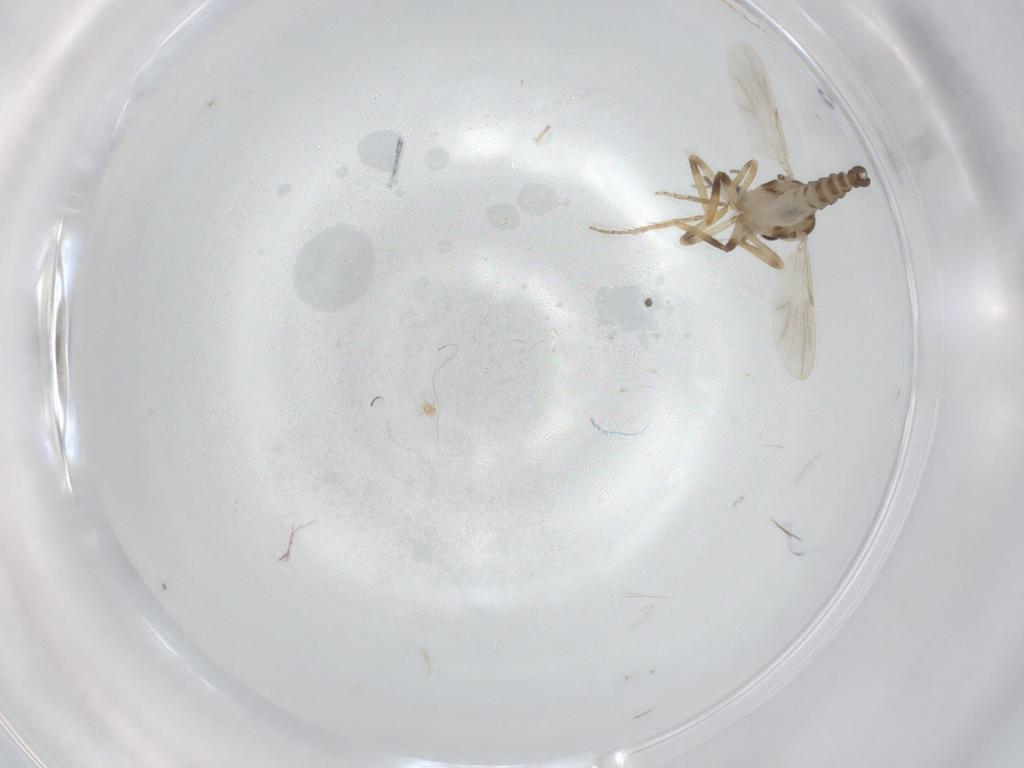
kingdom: Animalia
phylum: Arthropoda
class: Insecta
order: Diptera
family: Ceratopogonidae
